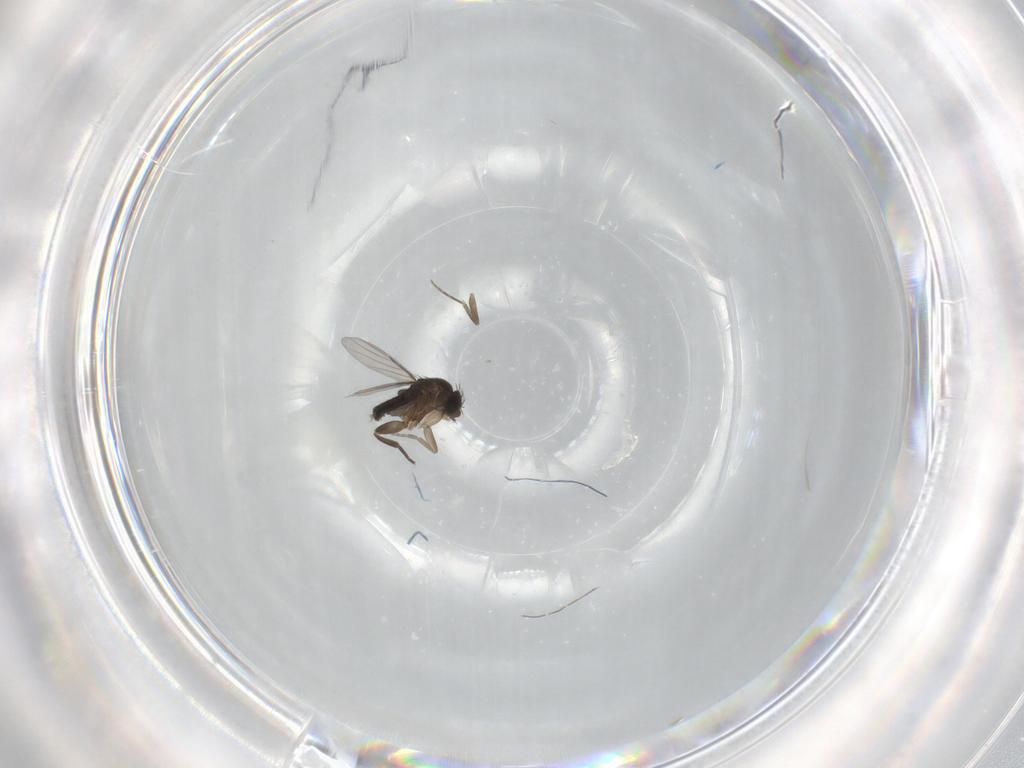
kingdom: Animalia
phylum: Arthropoda
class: Insecta
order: Diptera
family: Phoridae
